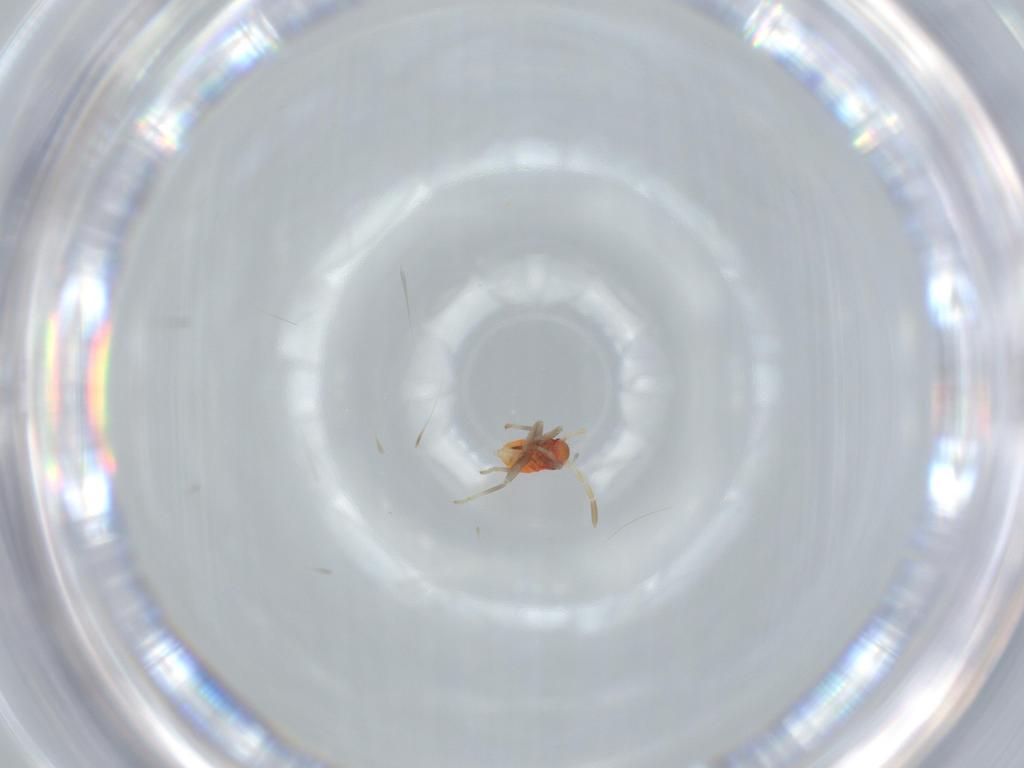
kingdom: Animalia
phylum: Arthropoda
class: Insecta
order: Hemiptera
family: Miridae
